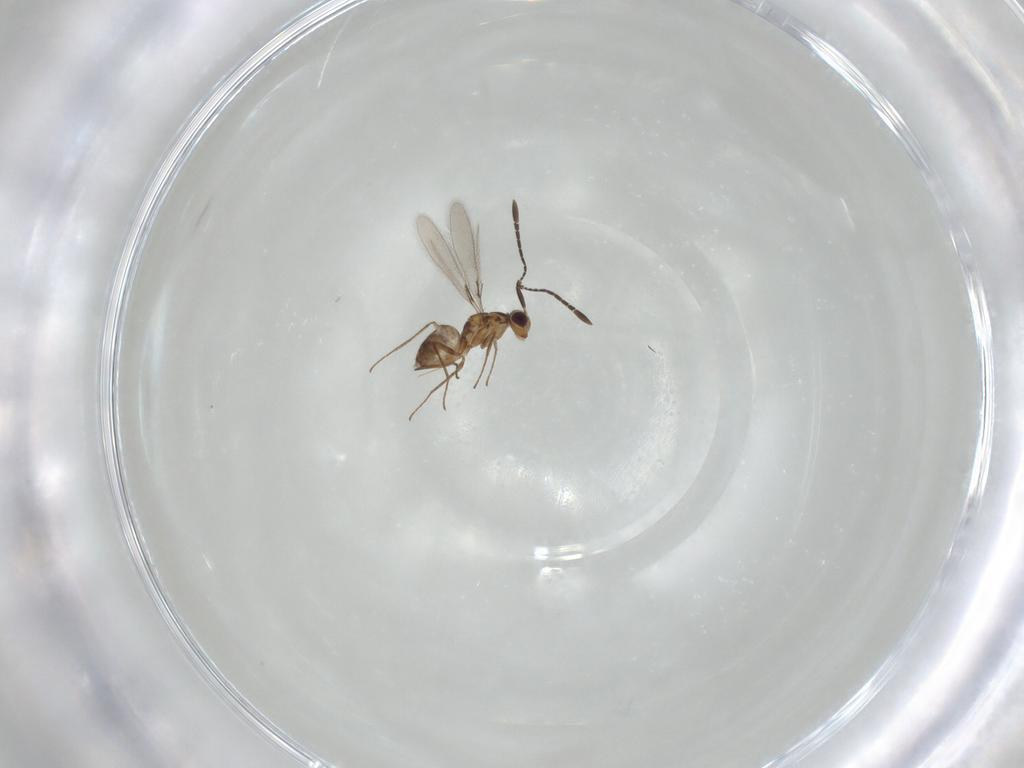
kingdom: Animalia
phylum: Arthropoda
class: Insecta
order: Hymenoptera
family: Mymaridae
